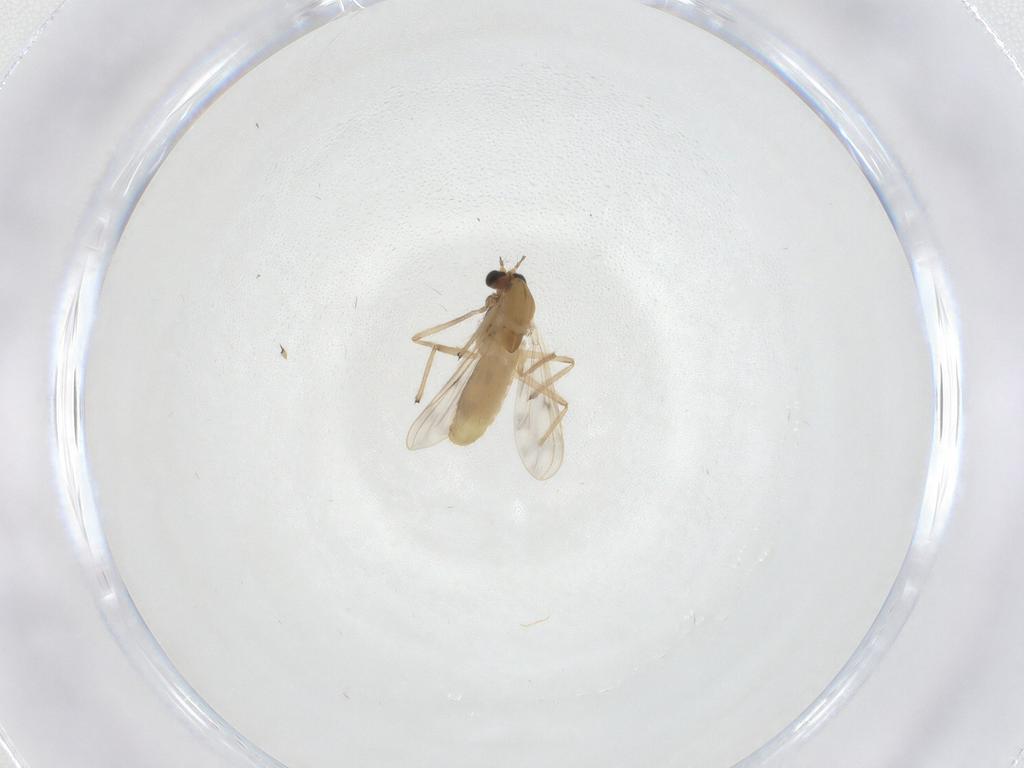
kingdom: Animalia
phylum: Arthropoda
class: Insecta
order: Diptera
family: Chironomidae
